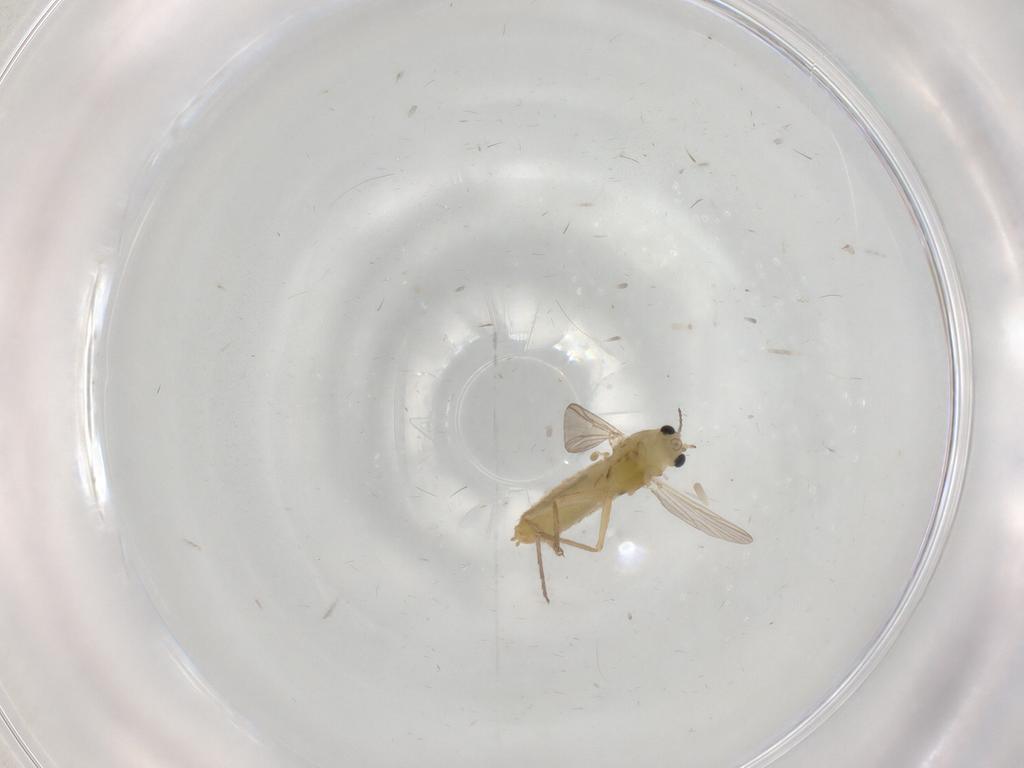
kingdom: Animalia
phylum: Arthropoda
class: Insecta
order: Diptera
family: Chironomidae
